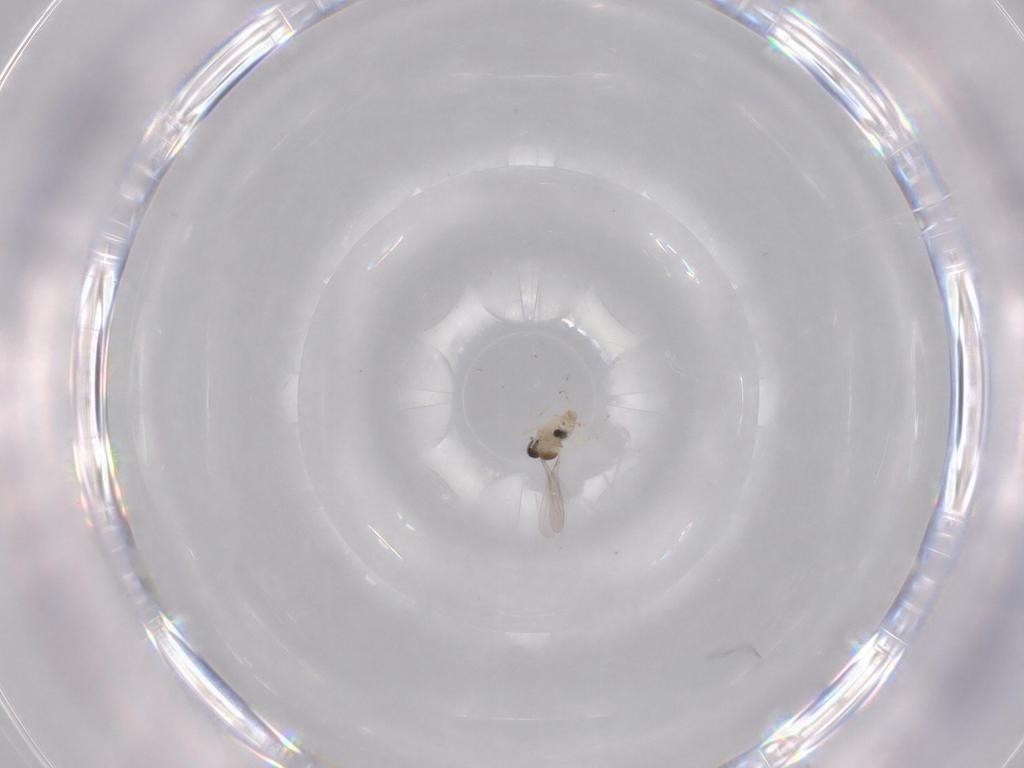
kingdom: Animalia
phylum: Arthropoda
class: Insecta
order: Diptera
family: Cecidomyiidae
